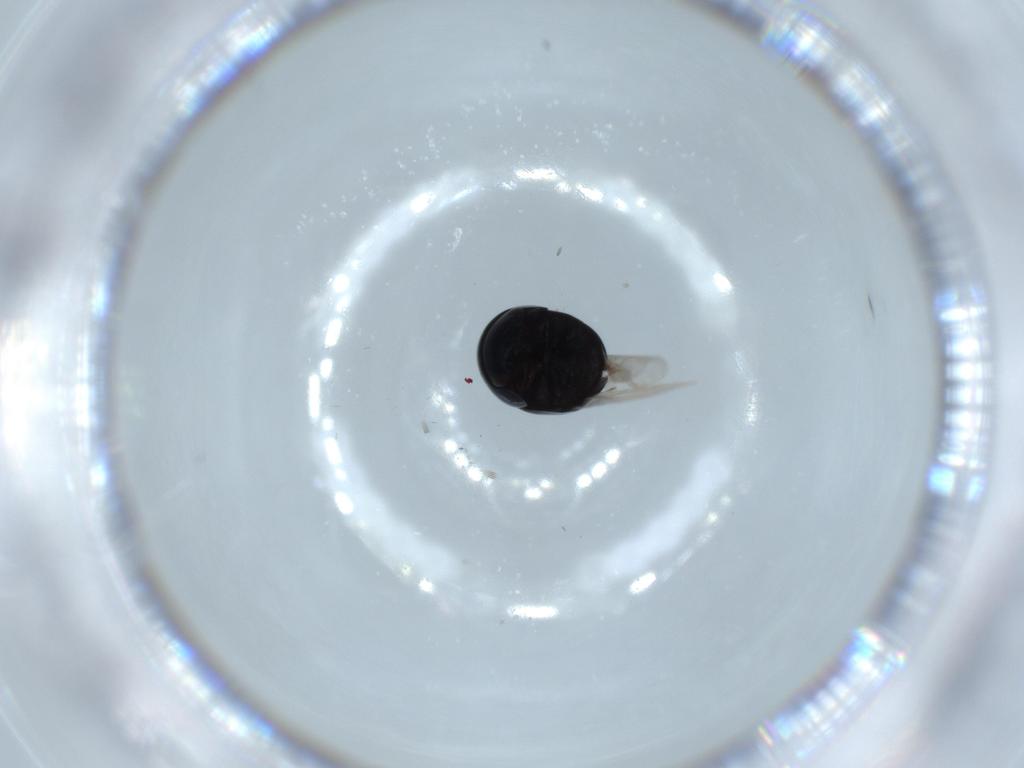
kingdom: Animalia
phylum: Arthropoda
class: Insecta
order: Coleoptera
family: Cybocephalidae
